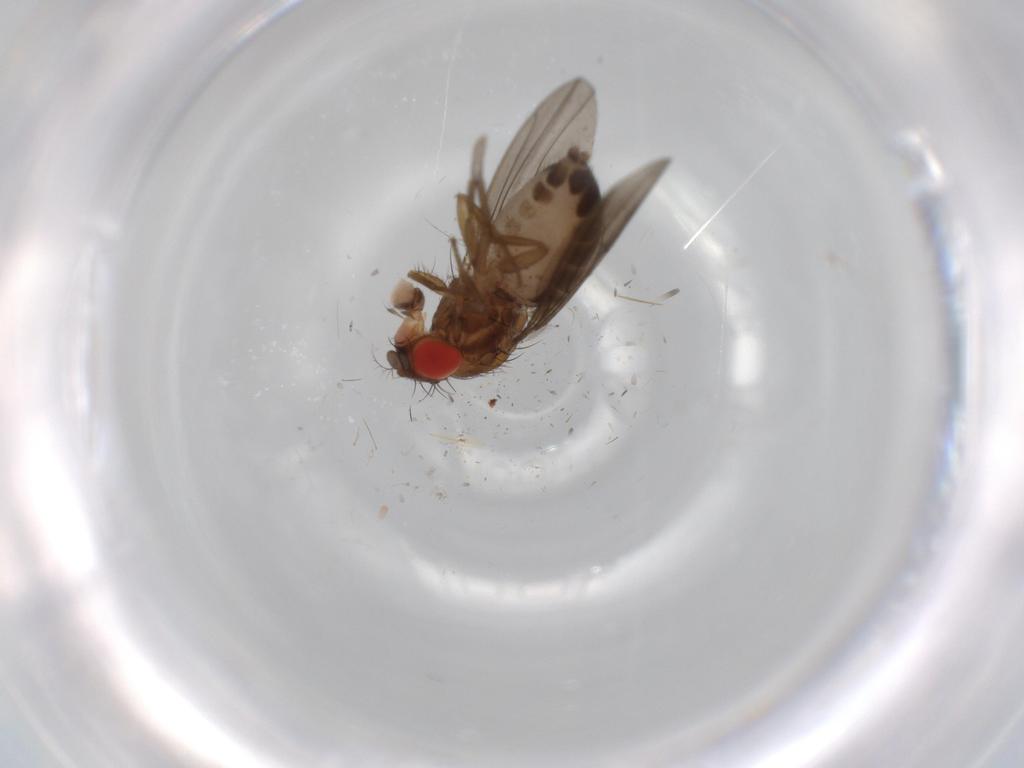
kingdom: Animalia
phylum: Arthropoda
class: Insecta
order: Diptera
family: Drosophilidae
